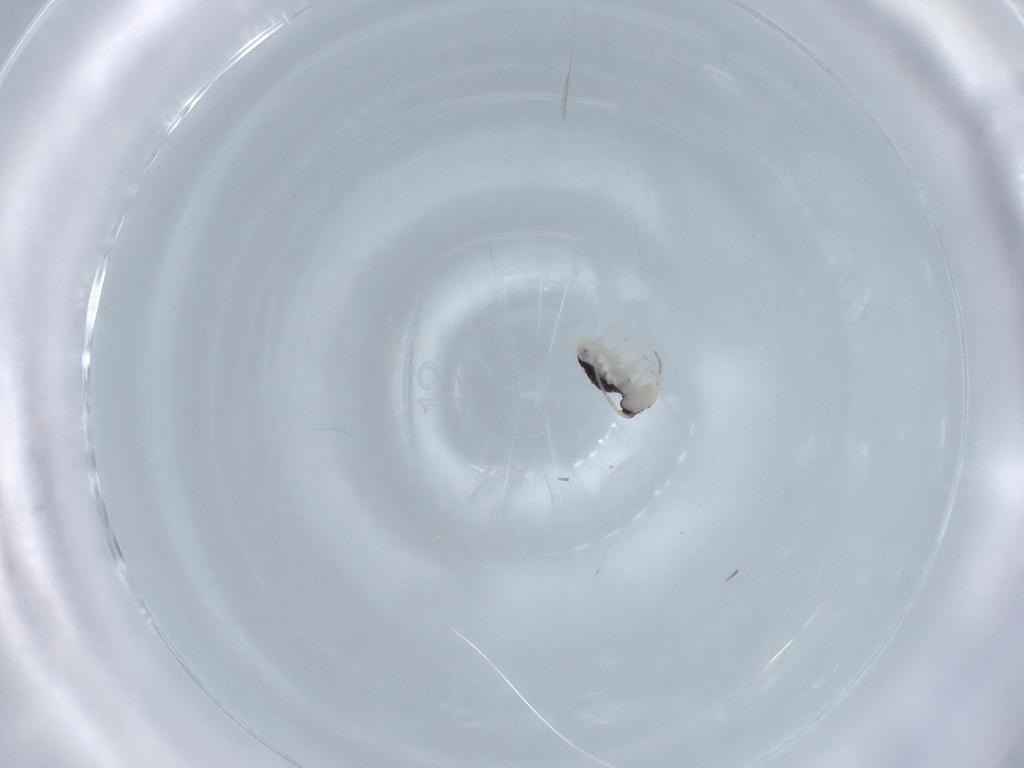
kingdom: Animalia
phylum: Arthropoda
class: Collembola
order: Symphypleona
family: Bourletiellidae
